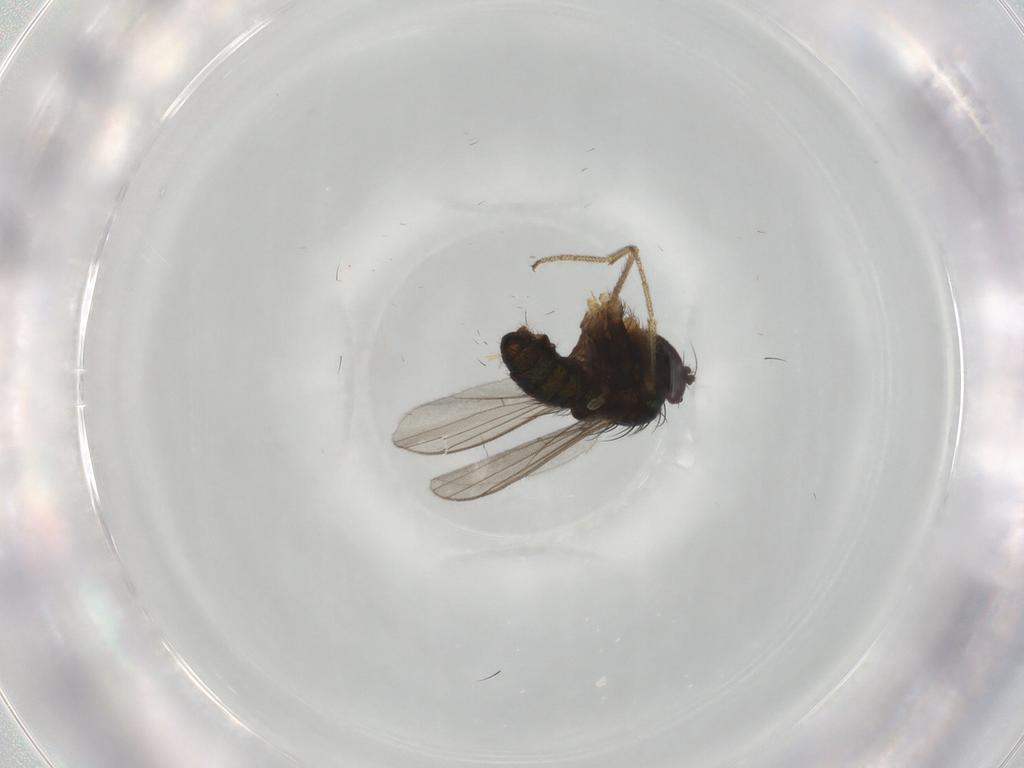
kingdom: Animalia
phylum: Arthropoda
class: Insecta
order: Diptera
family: Dolichopodidae
